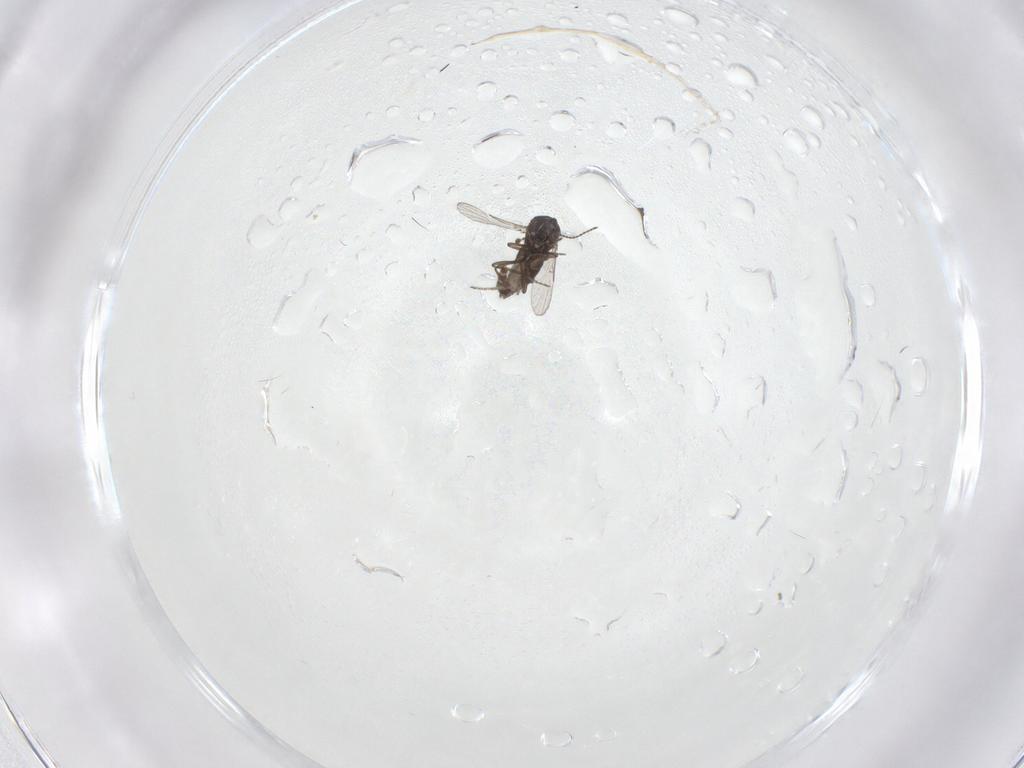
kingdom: Animalia
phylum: Arthropoda
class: Insecta
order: Diptera
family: Ceratopogonidae
